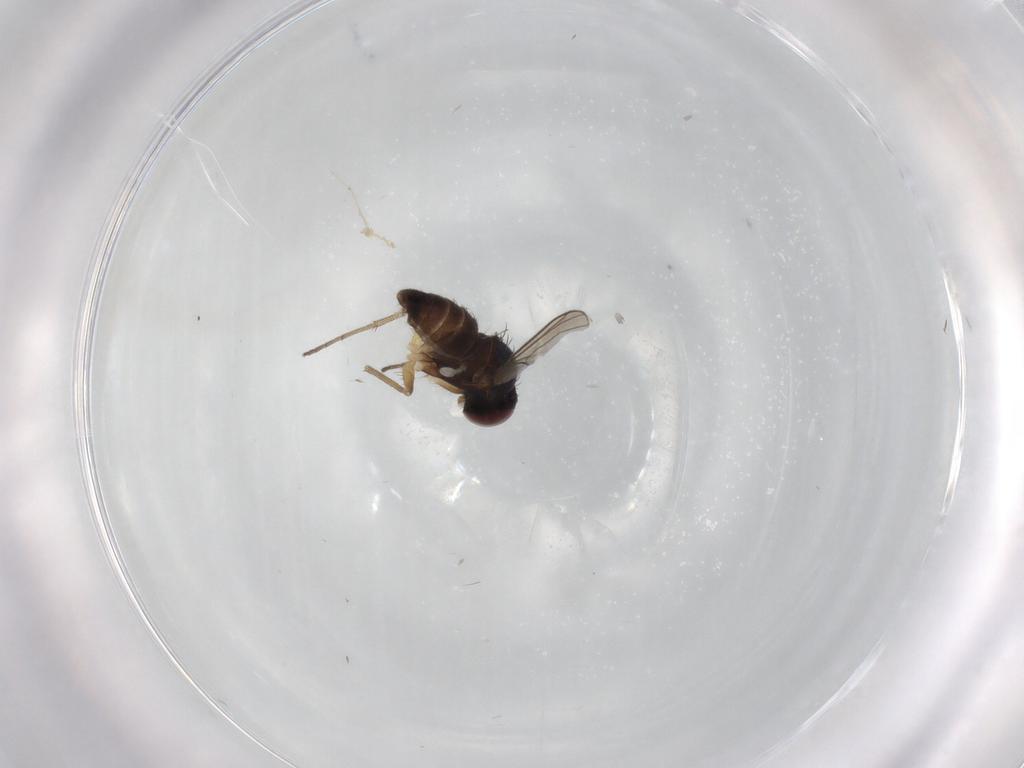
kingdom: Animalia
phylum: Arthropoda
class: Insecta
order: Diptera
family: Dolichopodidae
